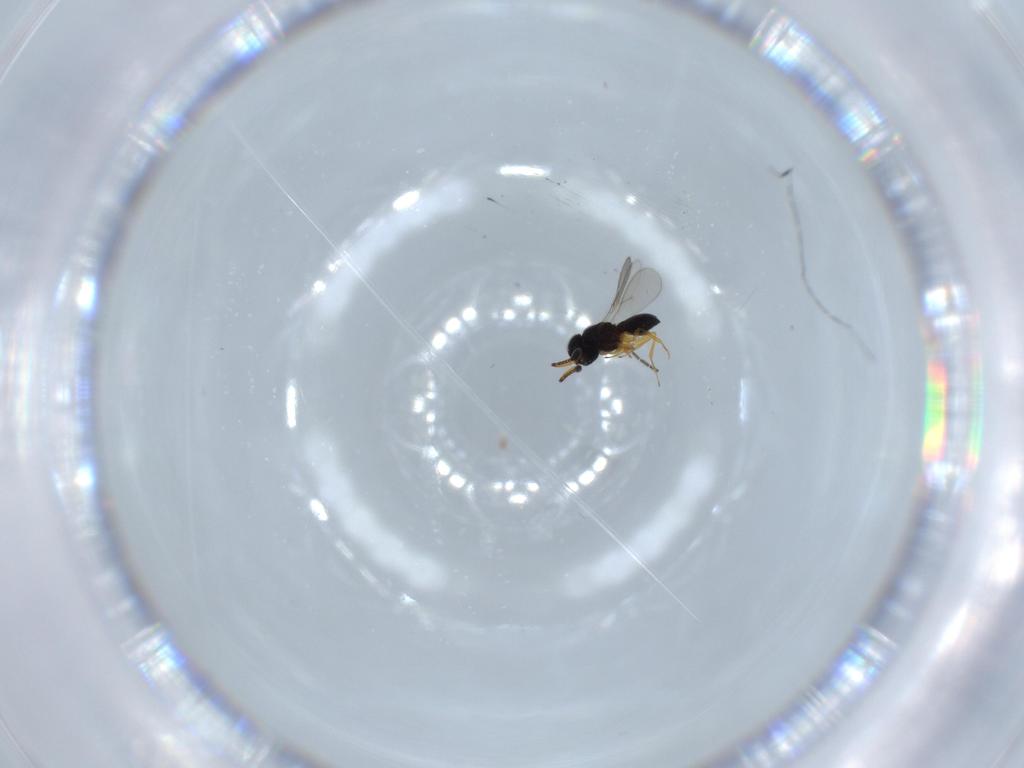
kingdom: Animalia
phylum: Arthropoda
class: Insecta
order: Hymenoptera
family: Scelionidae
